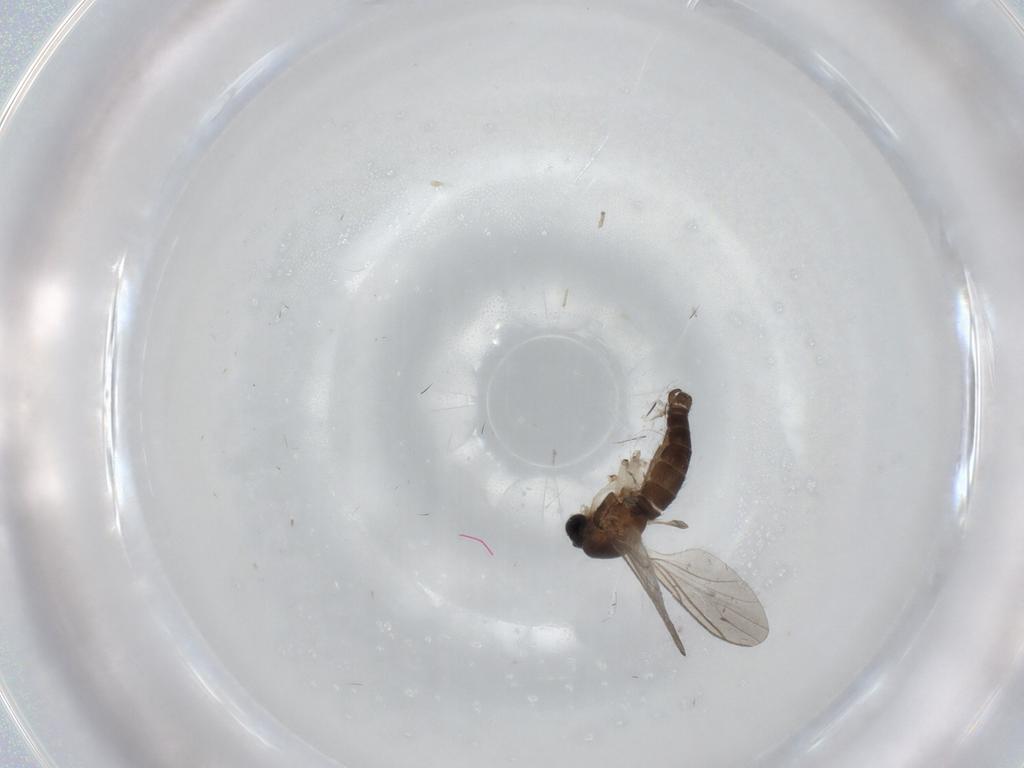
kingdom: Animalia
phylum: Arthropoda
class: Insecta
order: Diptera
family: Sciaridae
